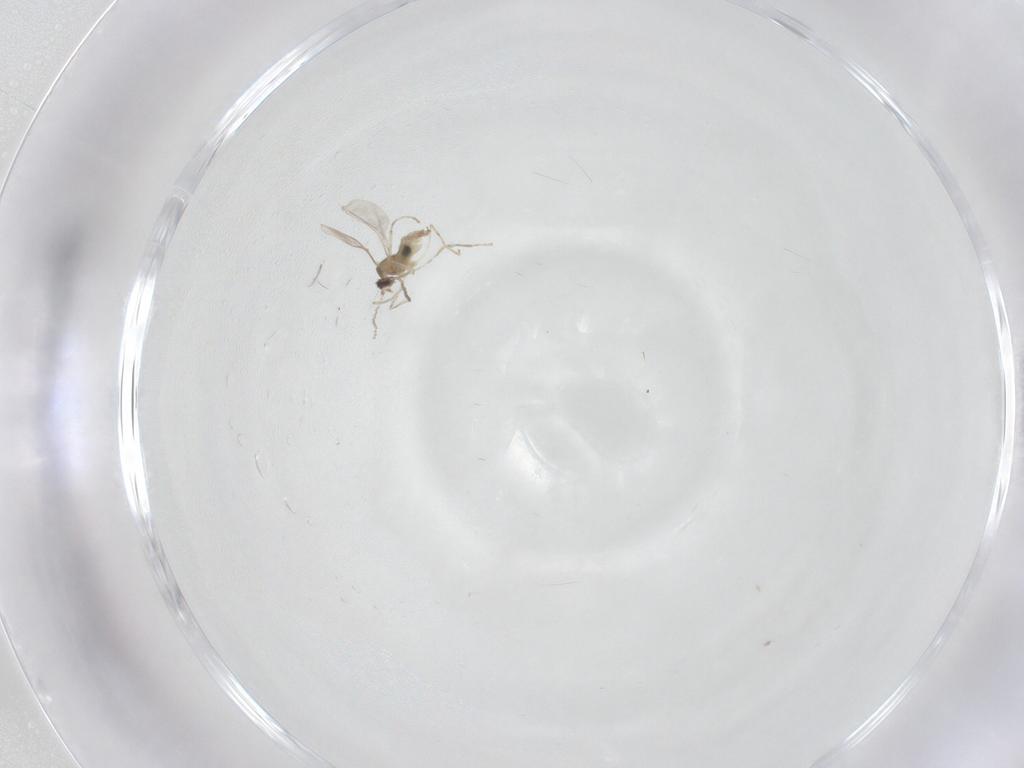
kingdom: Animalia
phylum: Arthropoda
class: Insecta
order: Diptera
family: Cecidomyiidae
